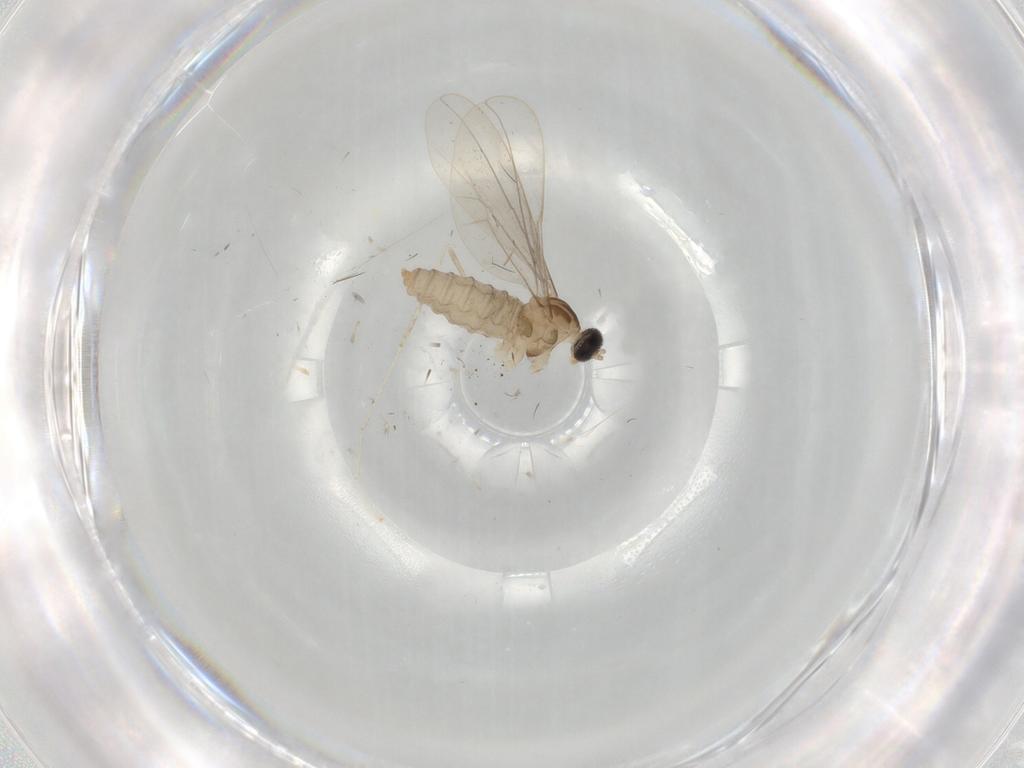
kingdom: Animalia
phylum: Arthropoda
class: Insecta
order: Diptera
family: Cecidomyiidae
